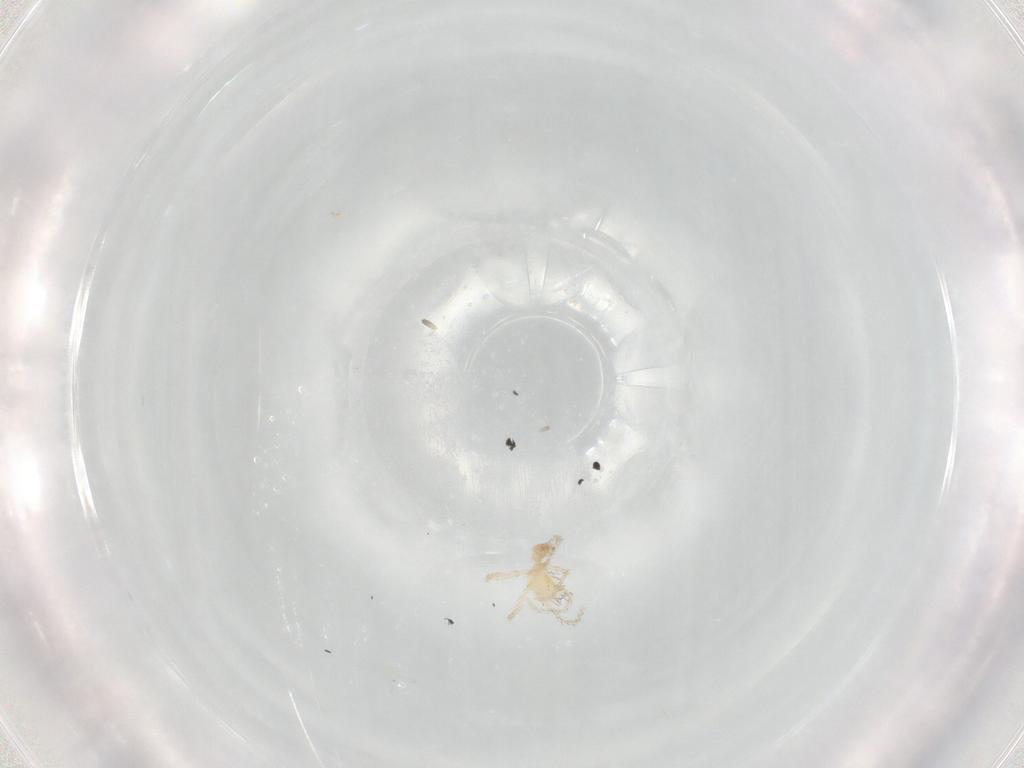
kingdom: Animalia
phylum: Arthropoda
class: Arachnida
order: Trombidiformes
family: Erythraeidae
